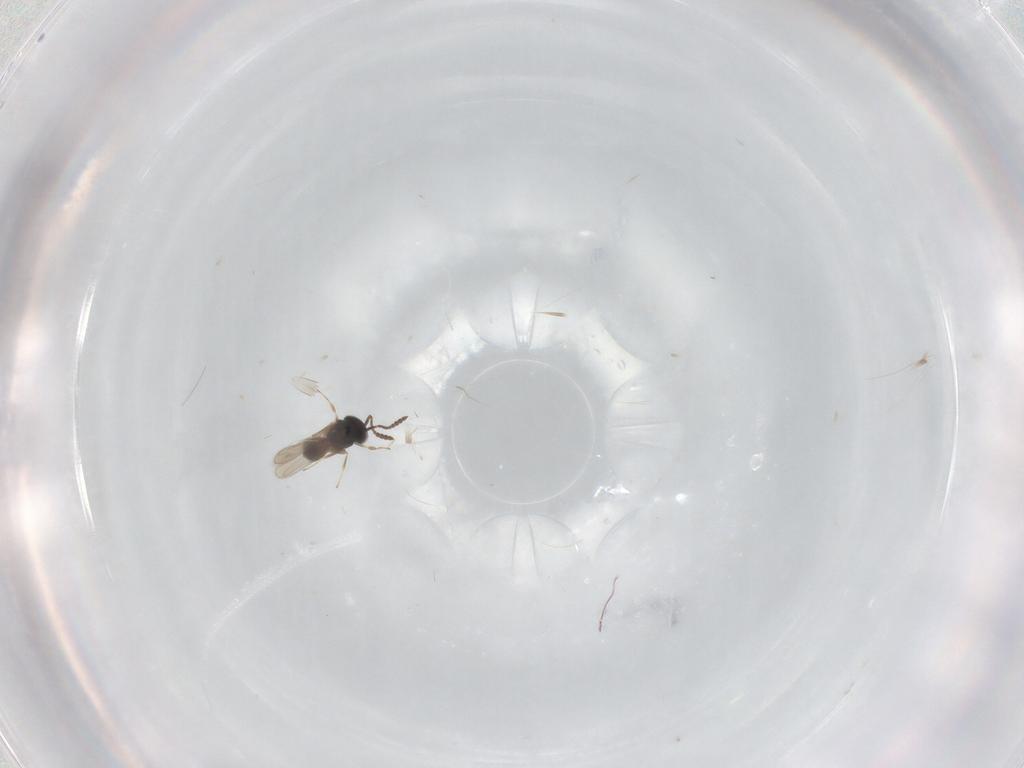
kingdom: Animalia
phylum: Arthropoda
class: Insecta
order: Hymenoptera
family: Scelionidae
